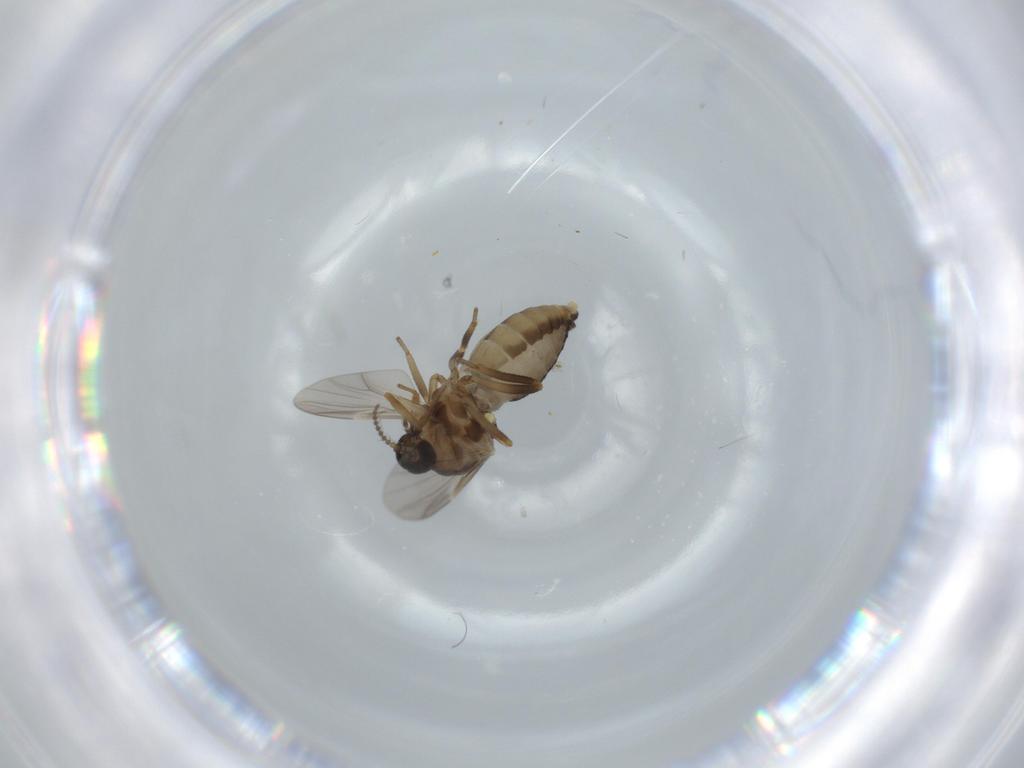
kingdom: Animalia
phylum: Arthropoda
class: Insecta
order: Diptera
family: Ceratopogonidae
